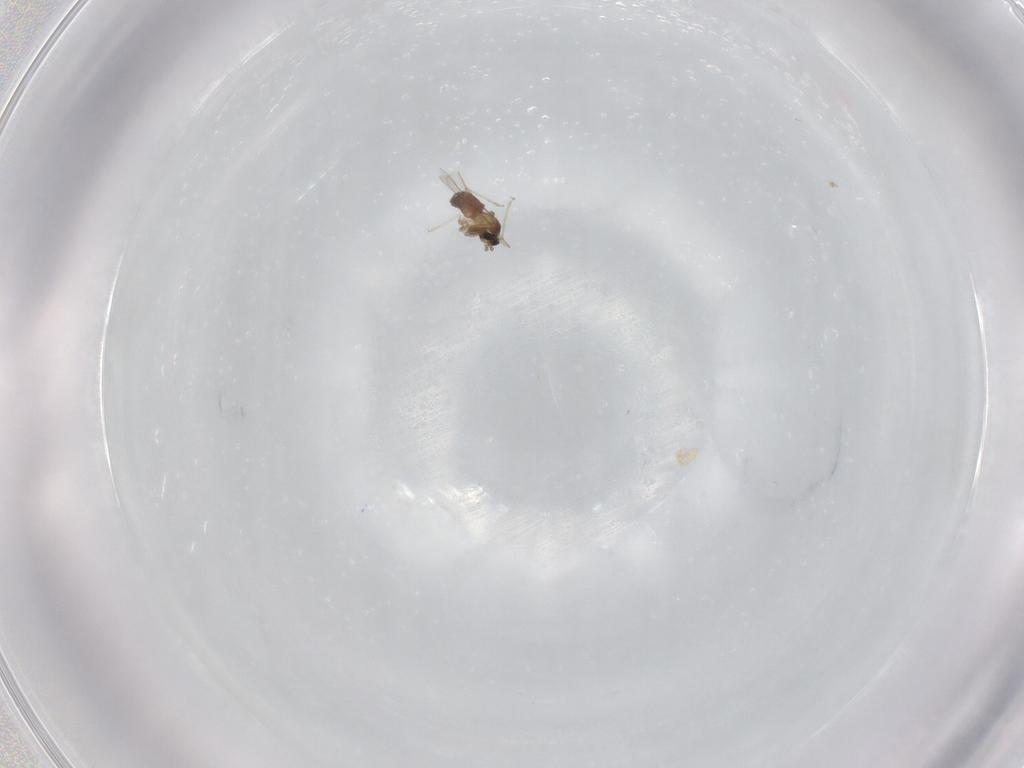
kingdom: Animalia
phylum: Arthropoda
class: Insecta
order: Diptera
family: Cecidomyiidae
